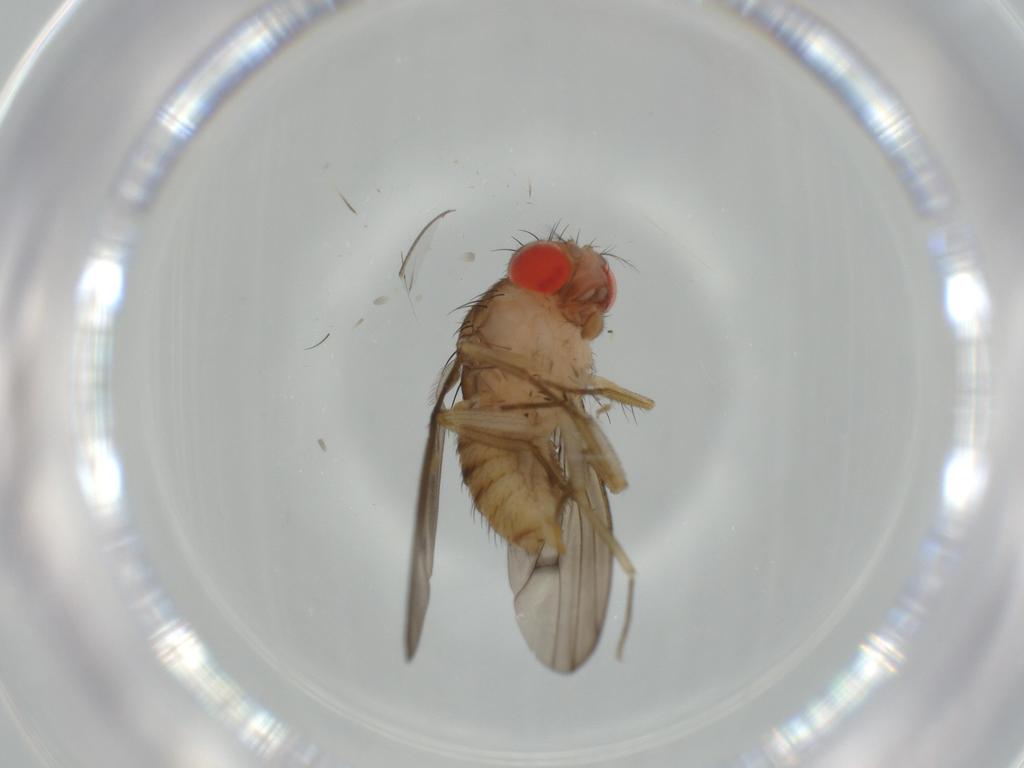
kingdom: Animalia
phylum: Arthropoda
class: Insecta
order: Diptera
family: Drosophilidae
